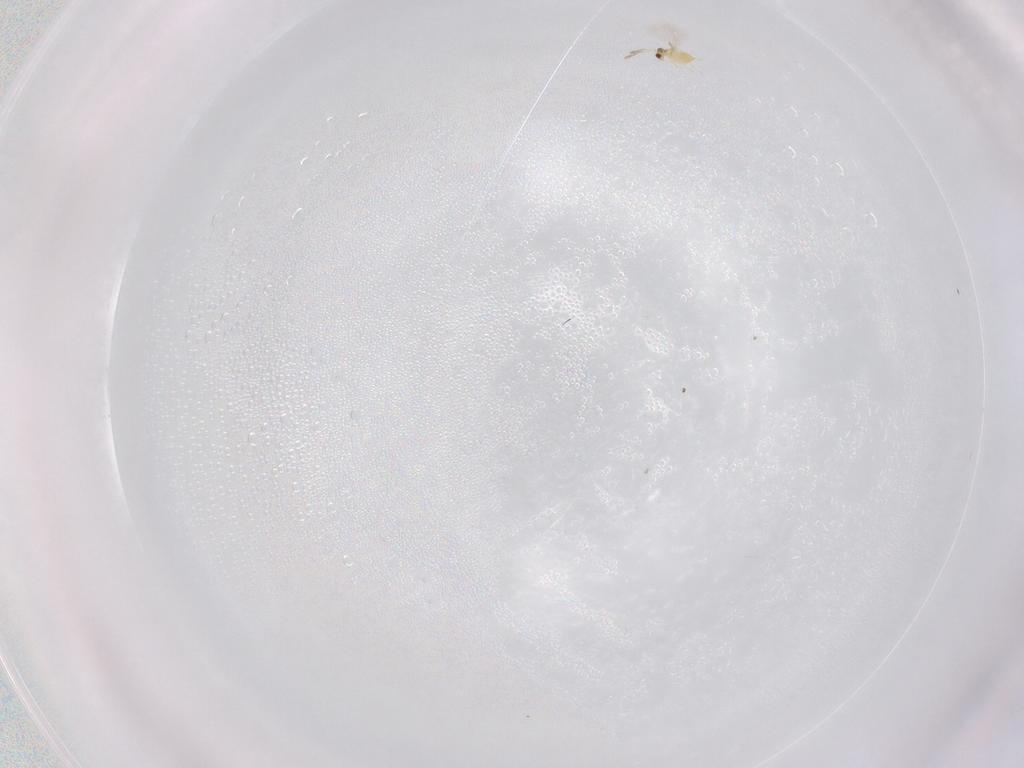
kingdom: Animalia
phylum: Arthropoda
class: Insecta
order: Hymenoptera
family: Mymaridae
